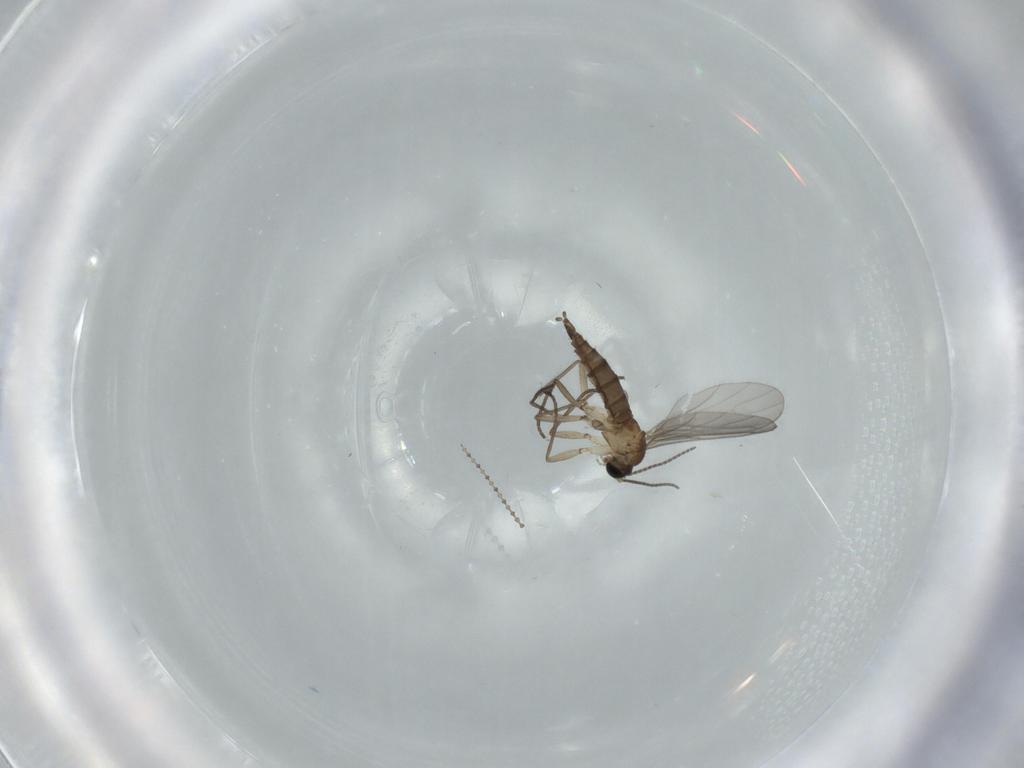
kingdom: Animalia
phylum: Arthropoda
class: Insecta
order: Diptera
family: Sciaridae
